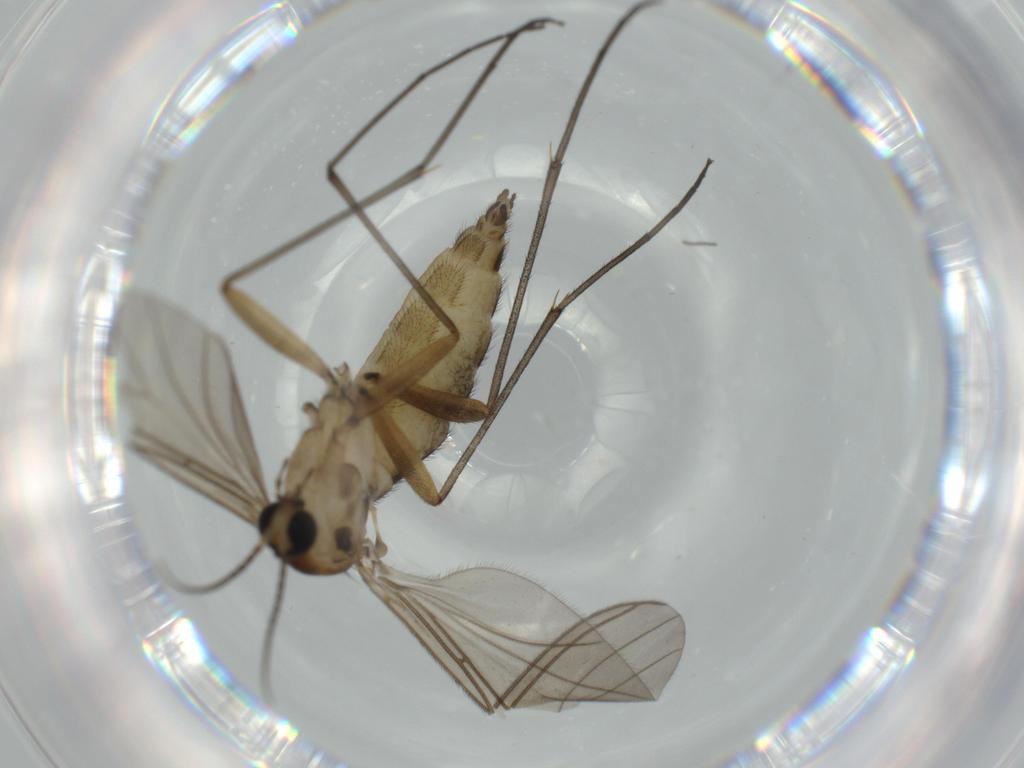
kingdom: Animalia
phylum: Arthropoda
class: Insecta
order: Diptera
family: Sciaridae
